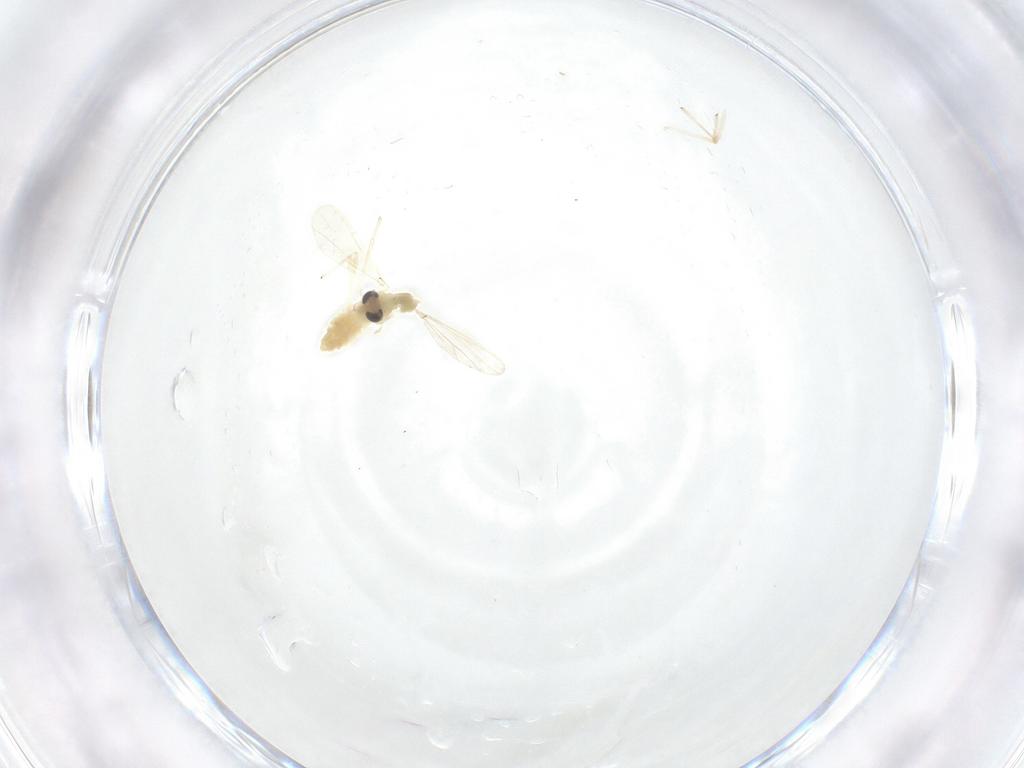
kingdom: Animalia
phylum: Arthropoda
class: Insecta
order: Diptera
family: Chironomidae
